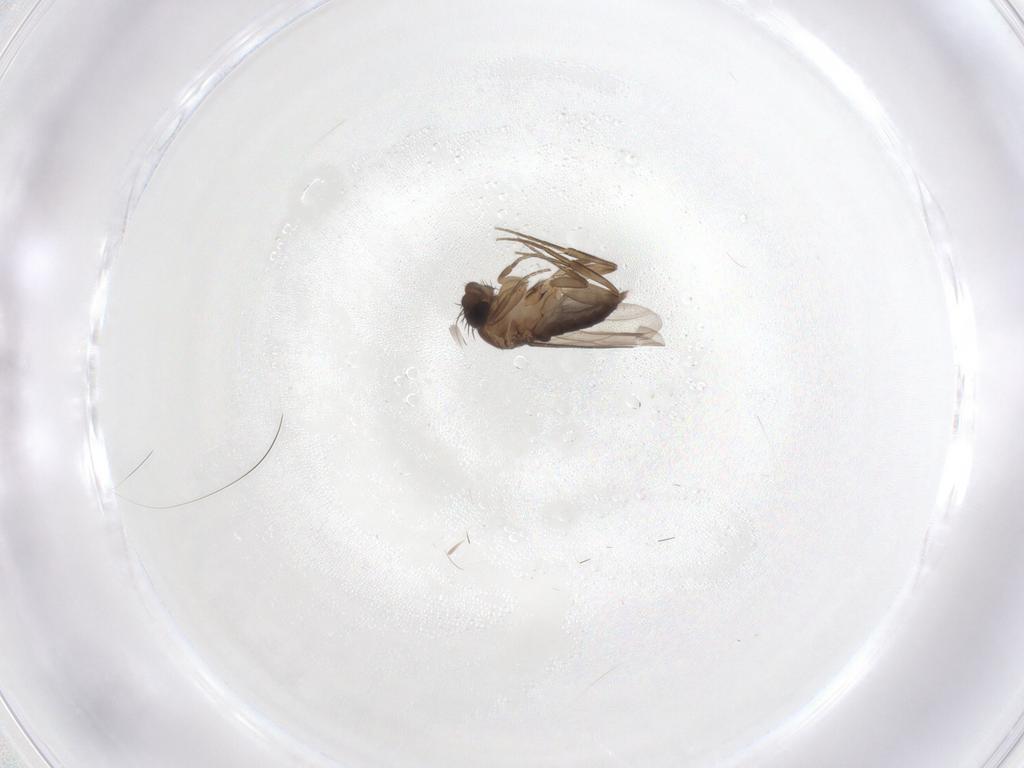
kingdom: Animalia
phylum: Arthropoda
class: Insecta
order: Diptera
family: Phoridae
